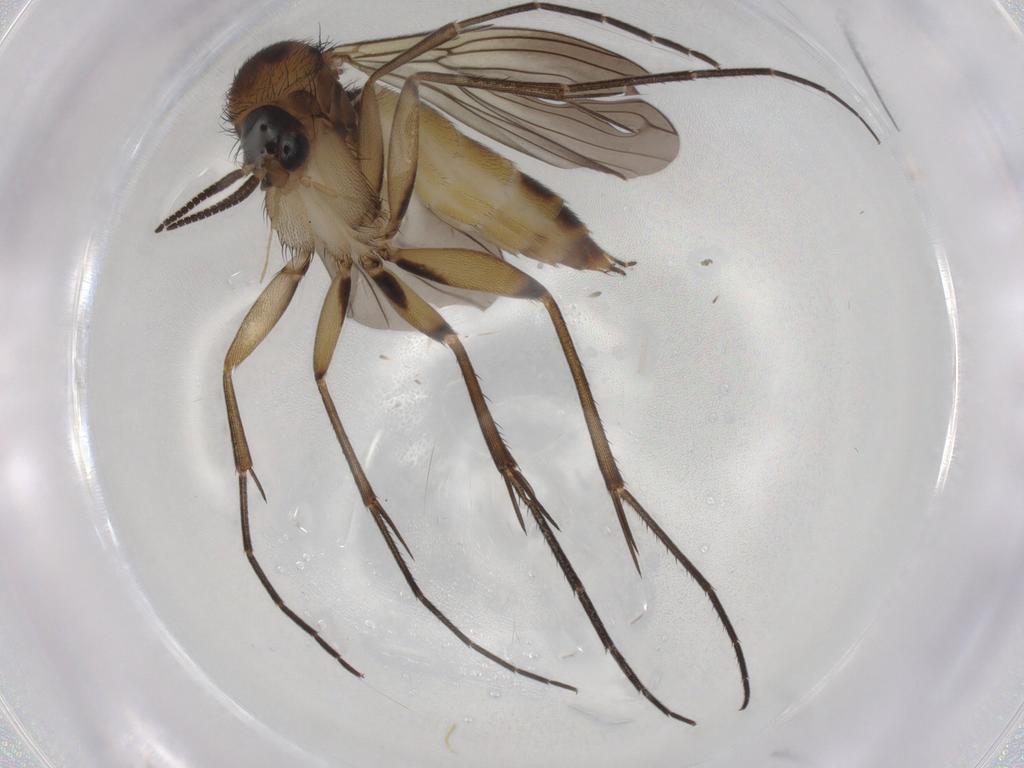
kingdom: Animalia
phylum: Arthropoda
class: Insecta
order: Diptera
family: Mycetophilidae
